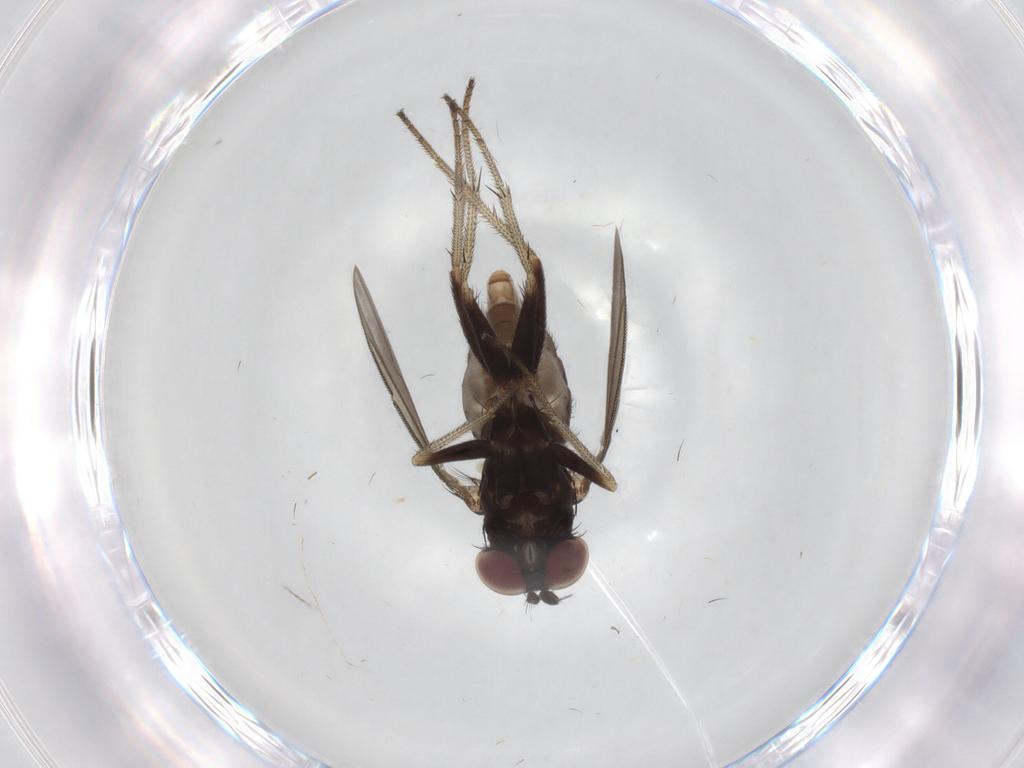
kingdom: Animalia
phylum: Arthropoda
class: Insecta
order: Diptera
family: Dolichopodidae
